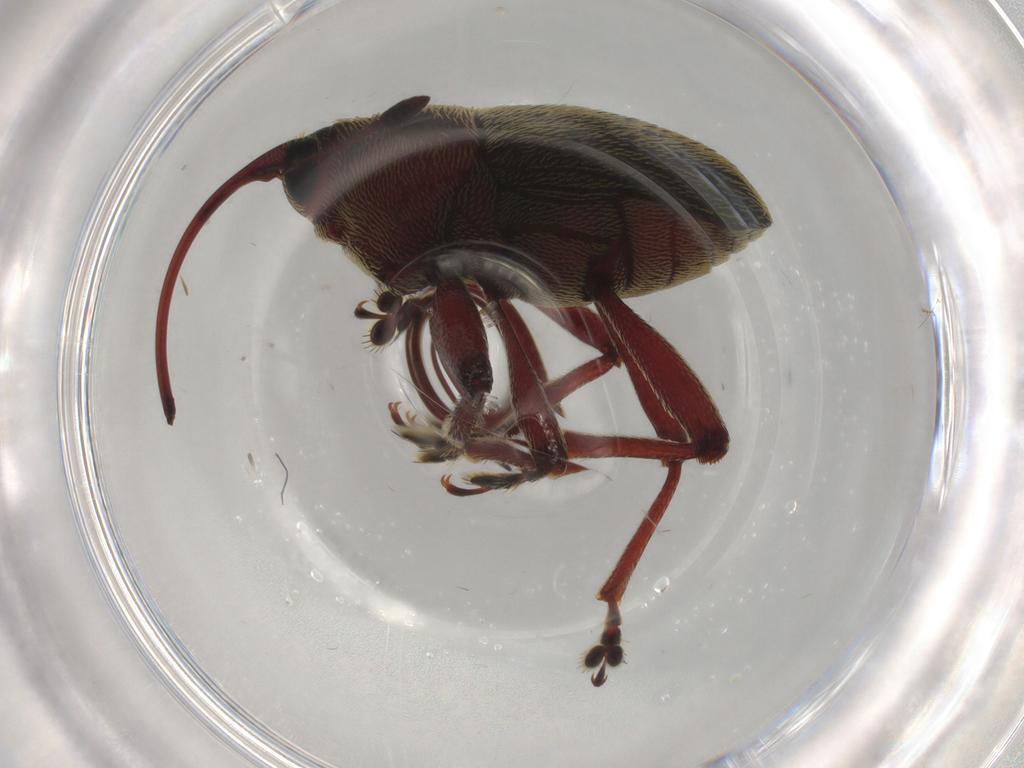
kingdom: Animalia
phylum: Arthropoda
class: Insecta
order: Coleoptera
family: Curculionidae
